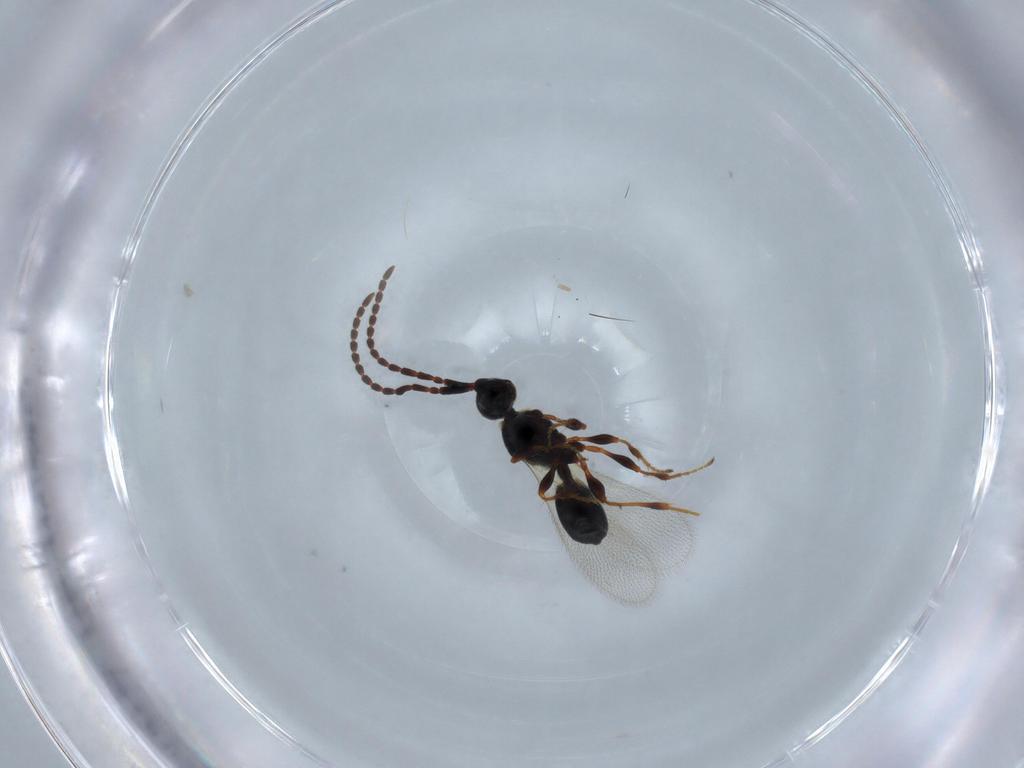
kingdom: Animalia
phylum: Arthropoda
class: Insecta
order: Hymenoptera
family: Diapriidae
